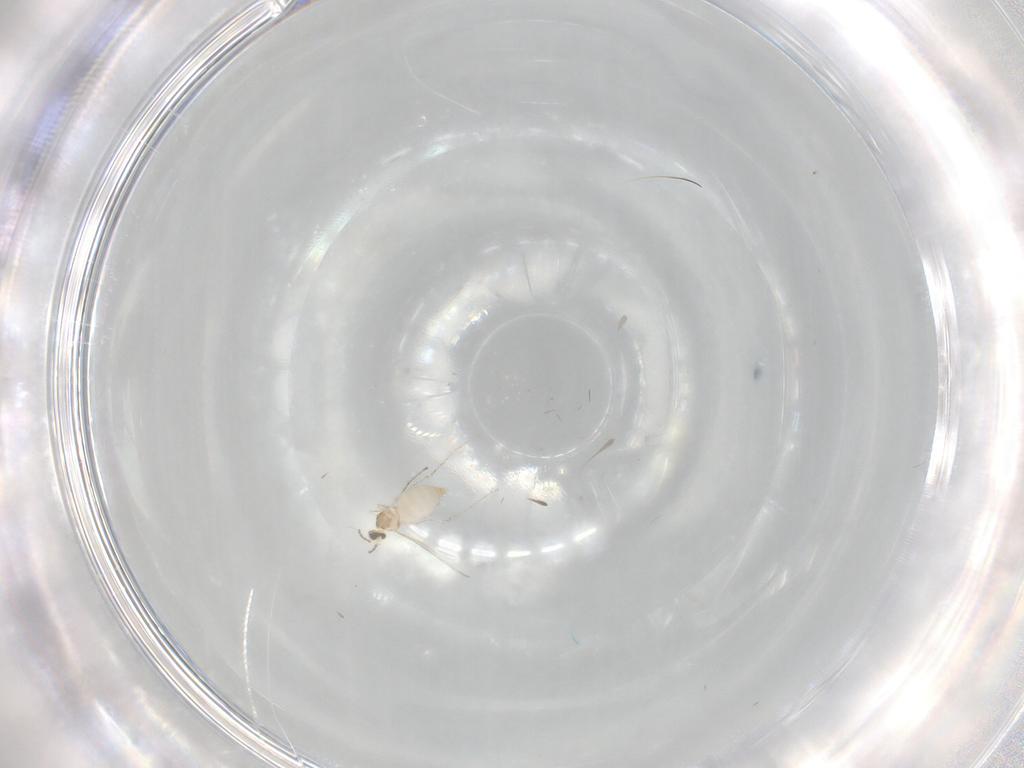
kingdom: Animalia
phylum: Arthropoda
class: Insecta
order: Diptera
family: Cecidomyiidae
